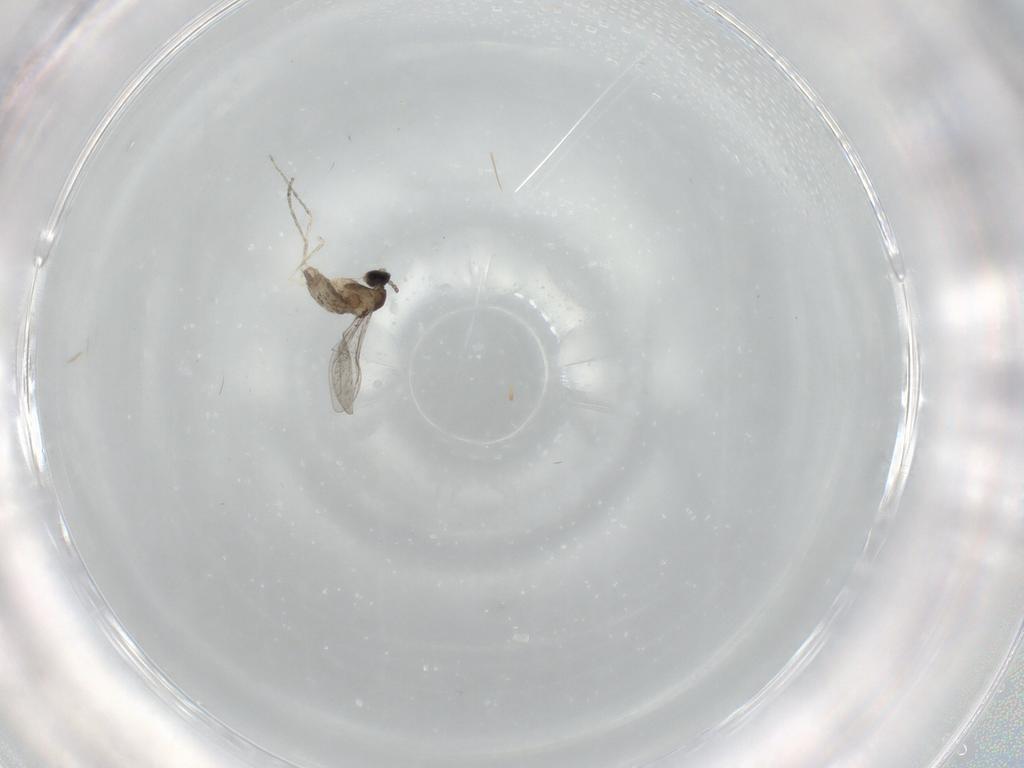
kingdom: Animalia
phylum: Arthropoda
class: Insecta
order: Diptera
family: Cecidomyiidae
